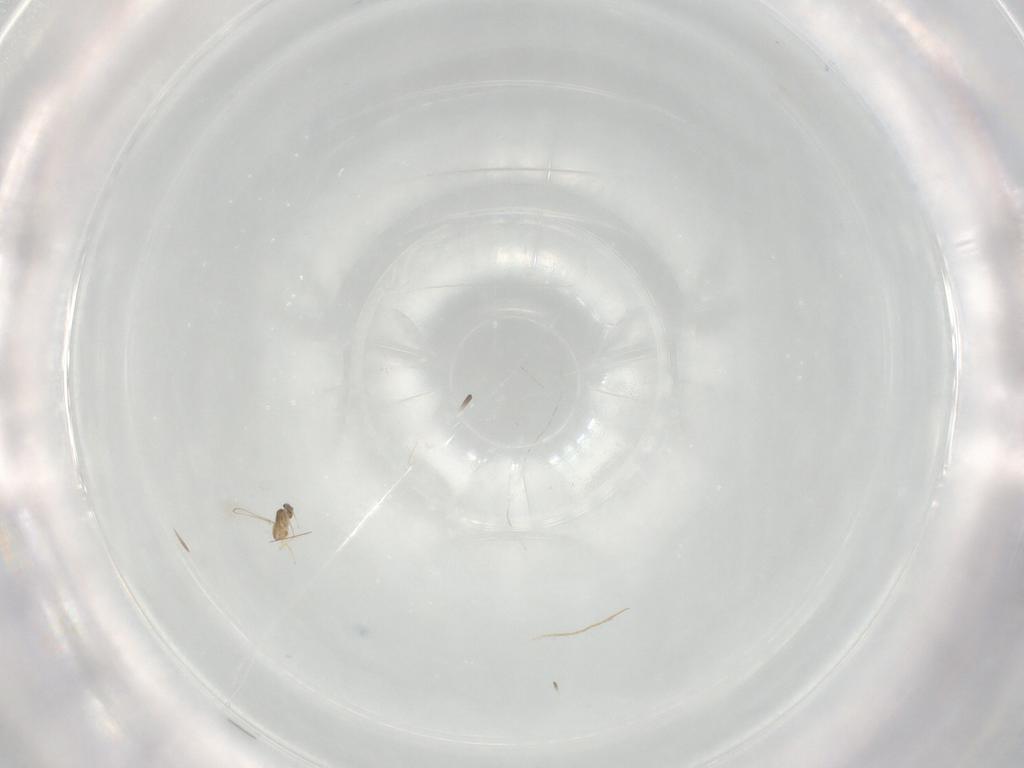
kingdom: Animalia
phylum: Arthropoda
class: Insecta
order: Hymenoptera
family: Mymaridae
